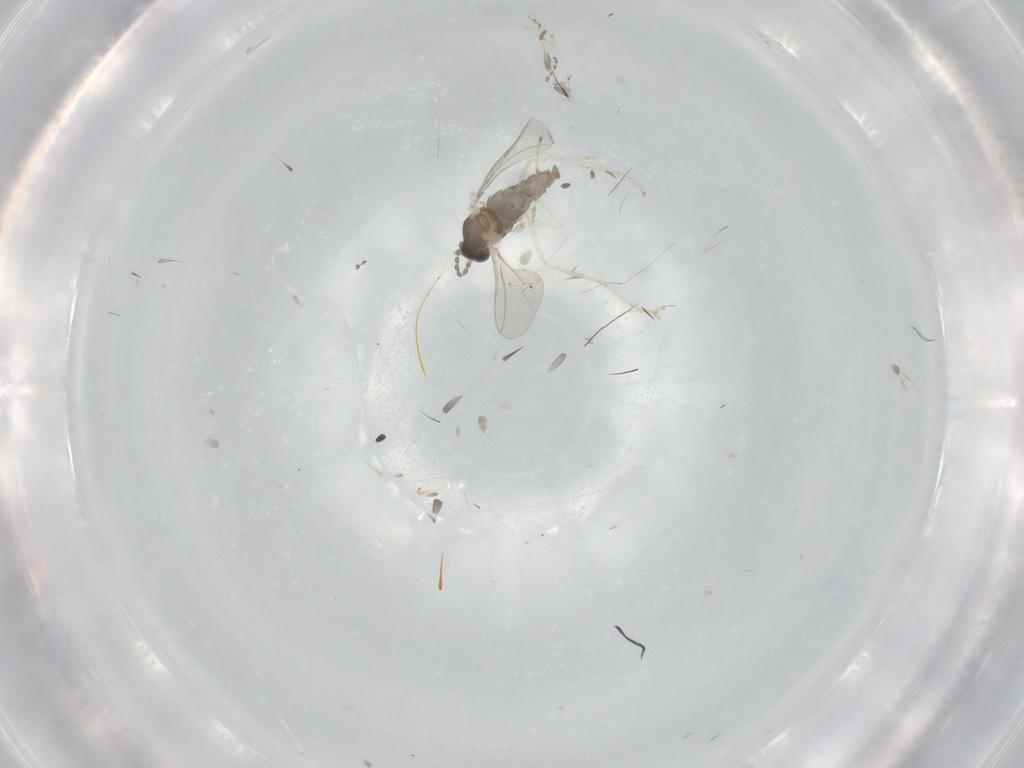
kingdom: Animalia
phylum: Arthropoda
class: Insecta
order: Diptera
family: Cecidomyiidae
